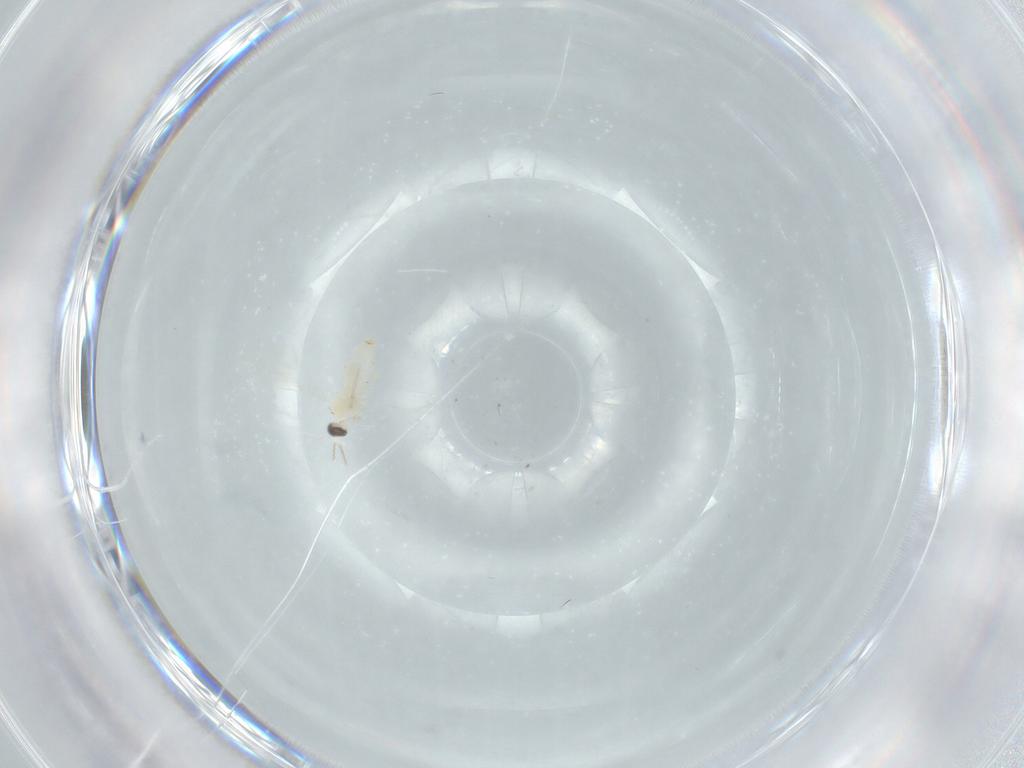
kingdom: Animalia
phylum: Arthropoda
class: Insecta
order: Diptera
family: Cecidomyiidae
